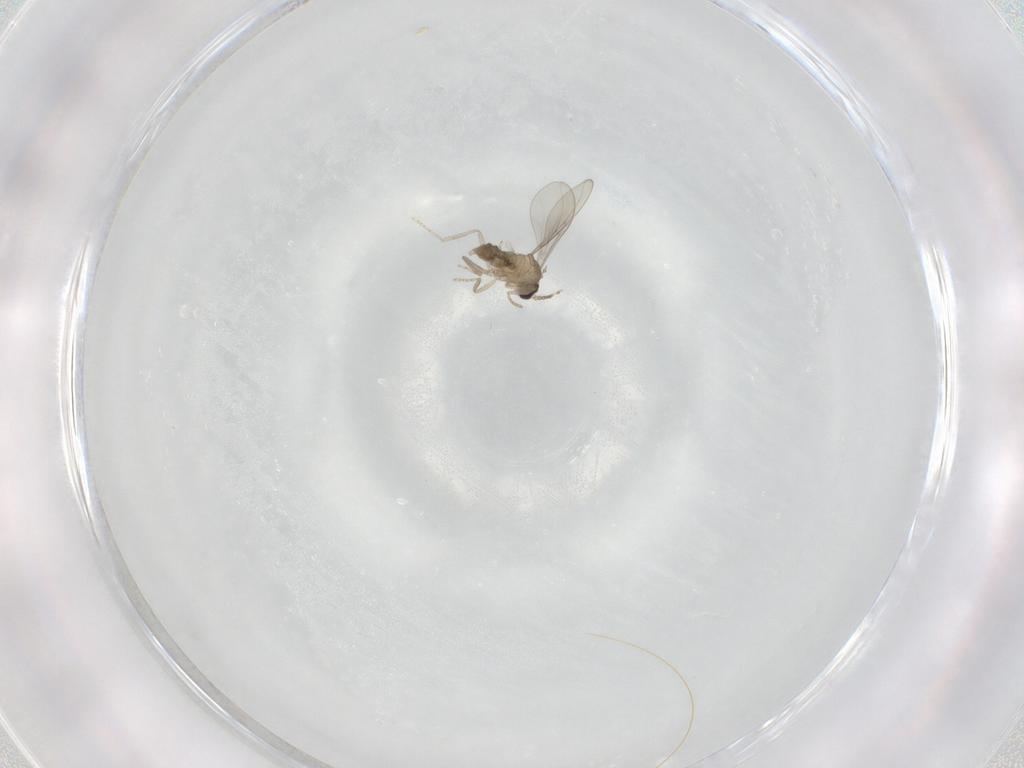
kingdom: Animalia
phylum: Arthropoda
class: Insecta
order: Diptera
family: Cecidomyiidae
